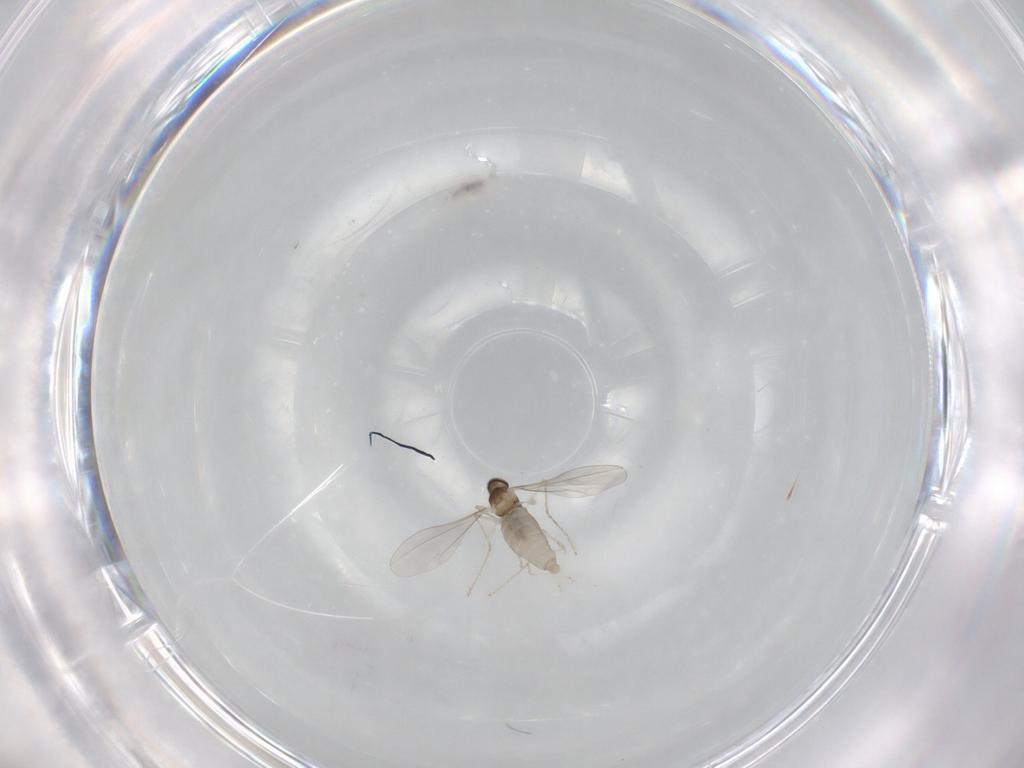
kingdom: Animalia
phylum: Arthropoda
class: Insecta
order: Diptera
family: Cecidomyiidae
